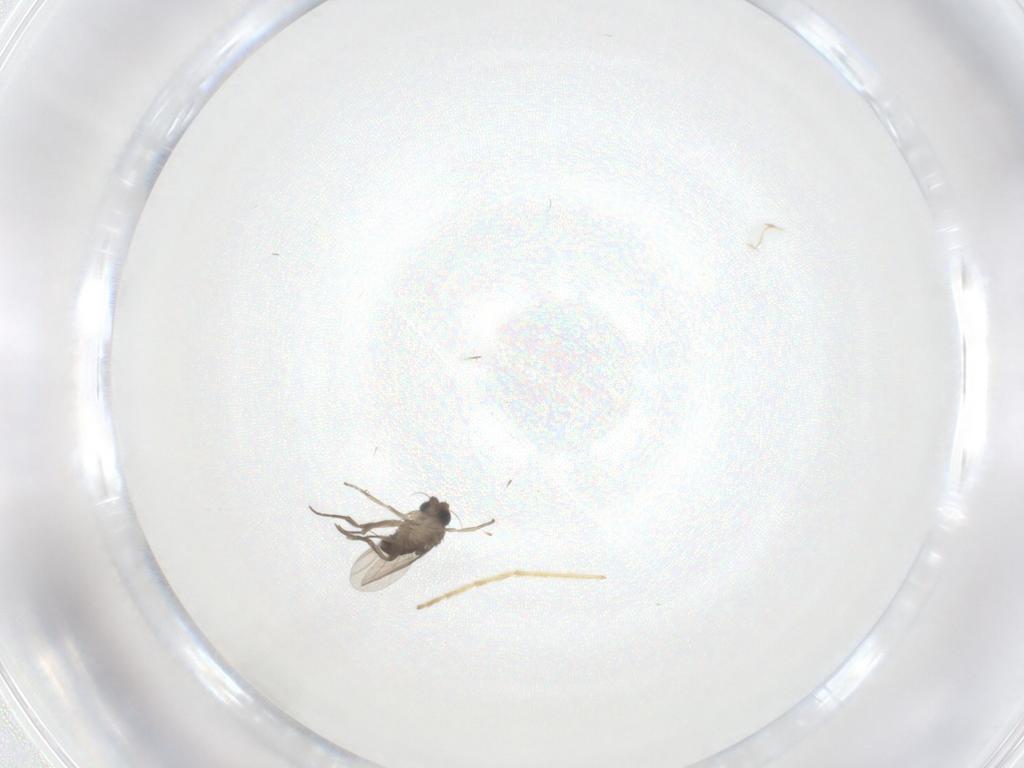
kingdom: Animalia
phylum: Arthropoda
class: Insecta
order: Diptera
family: Phoridae
